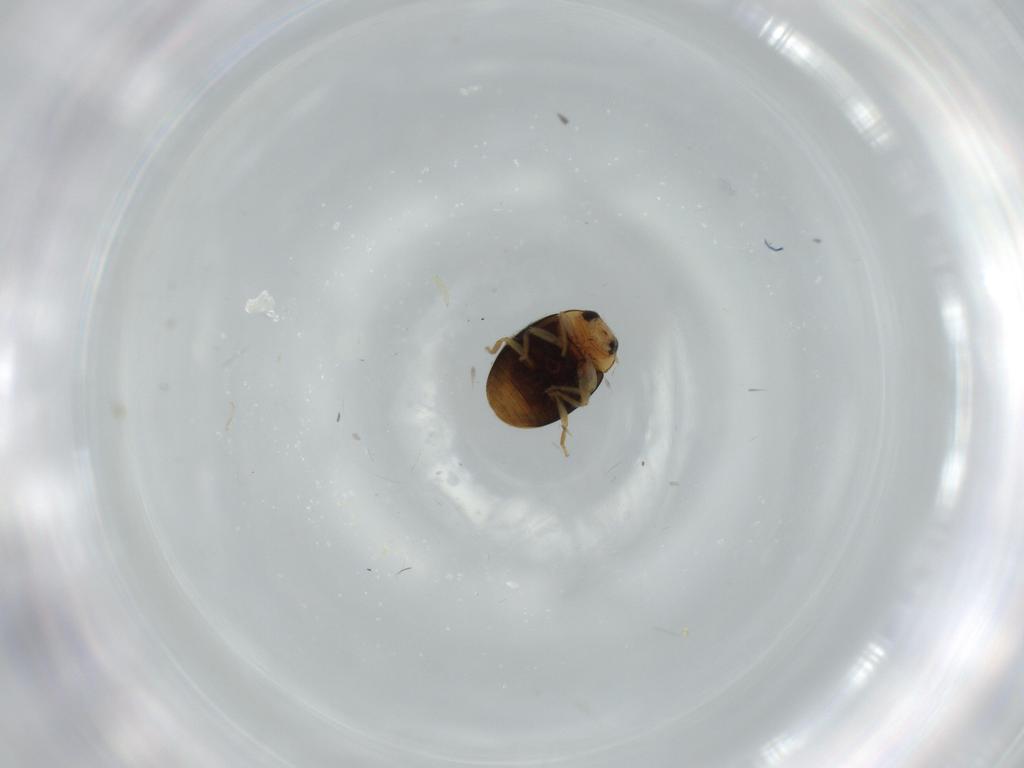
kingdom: Animalia
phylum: Arthropoda
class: Insecta
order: Coleoptera
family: Coccinellidae
